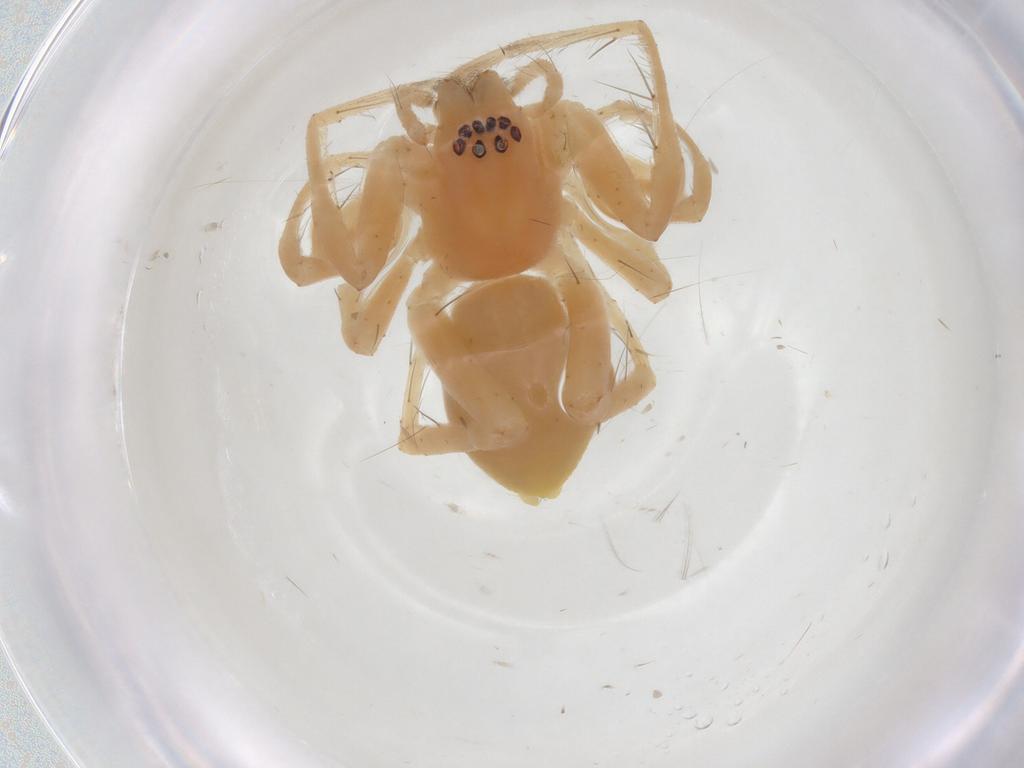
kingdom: Animalia
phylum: Arthropoda
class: Arachnida
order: Araneae
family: Anyphaenidae
